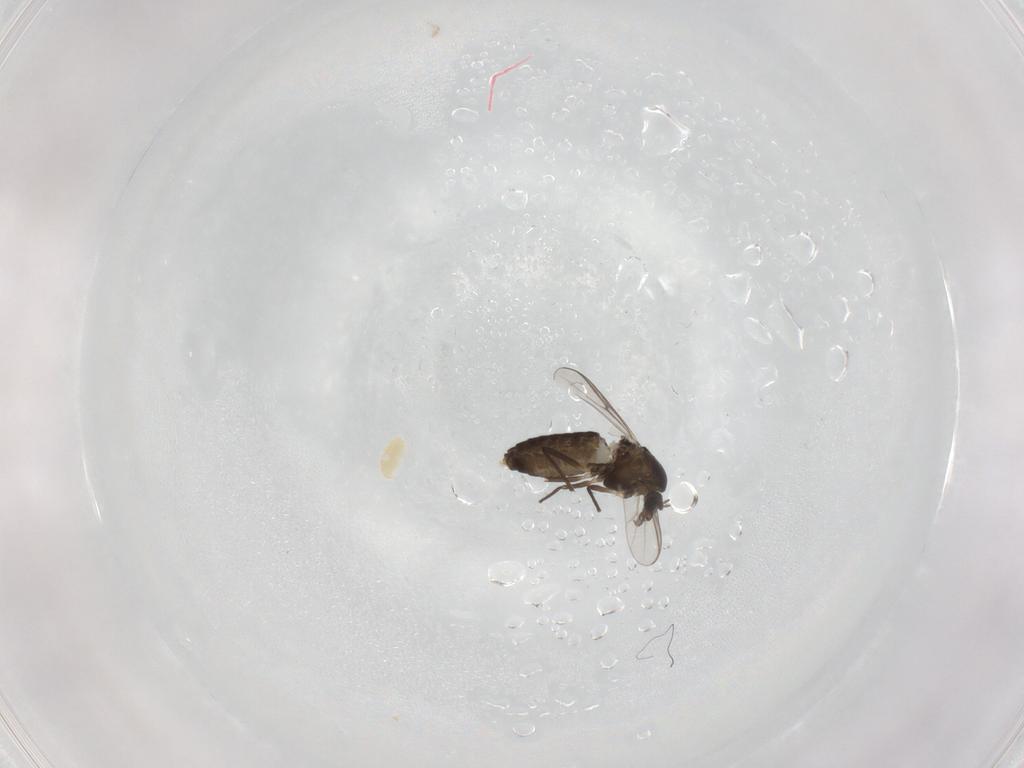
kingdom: Animalia
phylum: Arthropoda
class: Insecta
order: Diptera
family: Chironomidae
